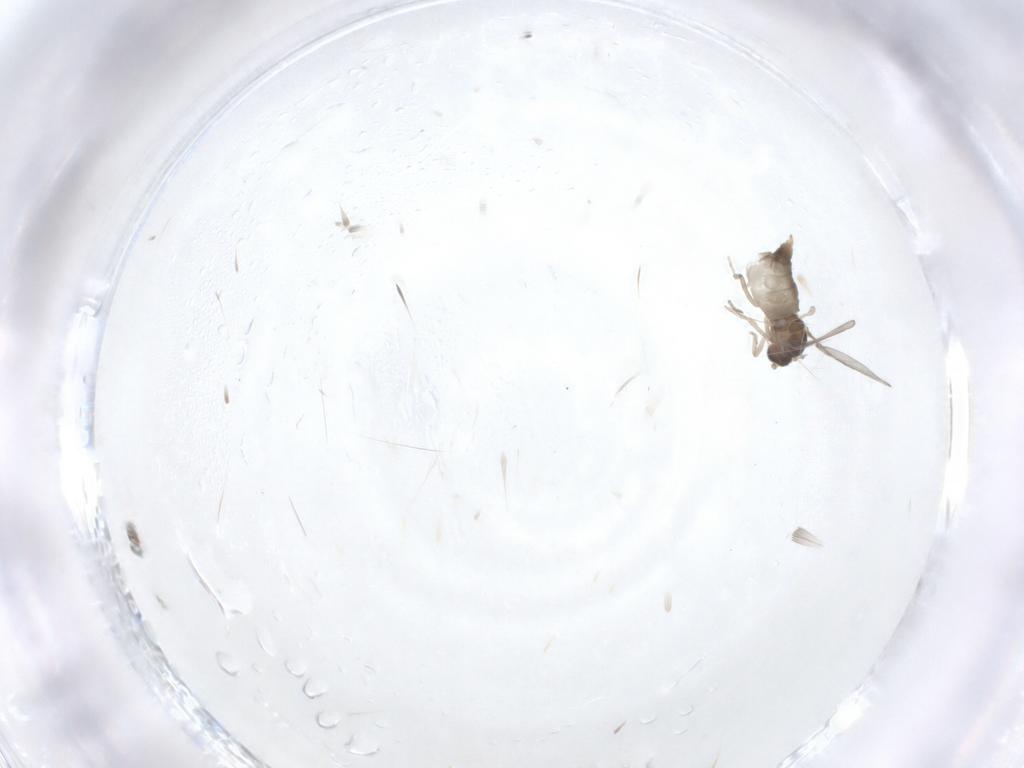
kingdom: Animalia
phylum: Arthropoda
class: Insecta
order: Diptera
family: Cecidomyiidae
